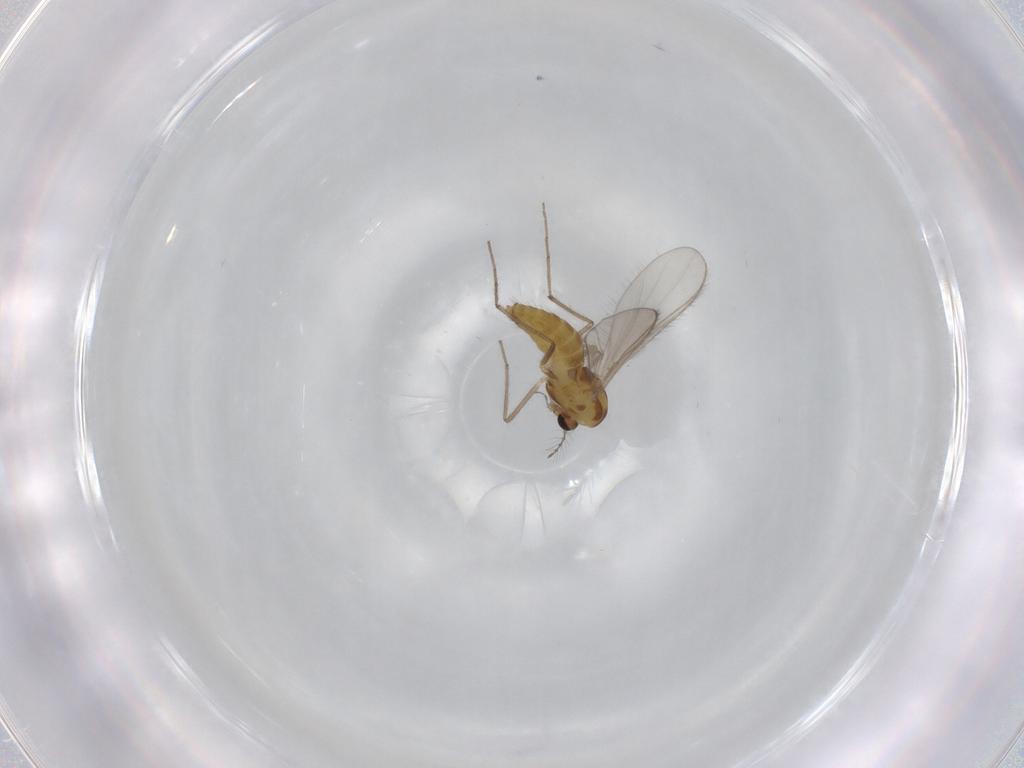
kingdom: Animalia
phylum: Arthropoda
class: Insecta
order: Diptera
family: Chironomidae
